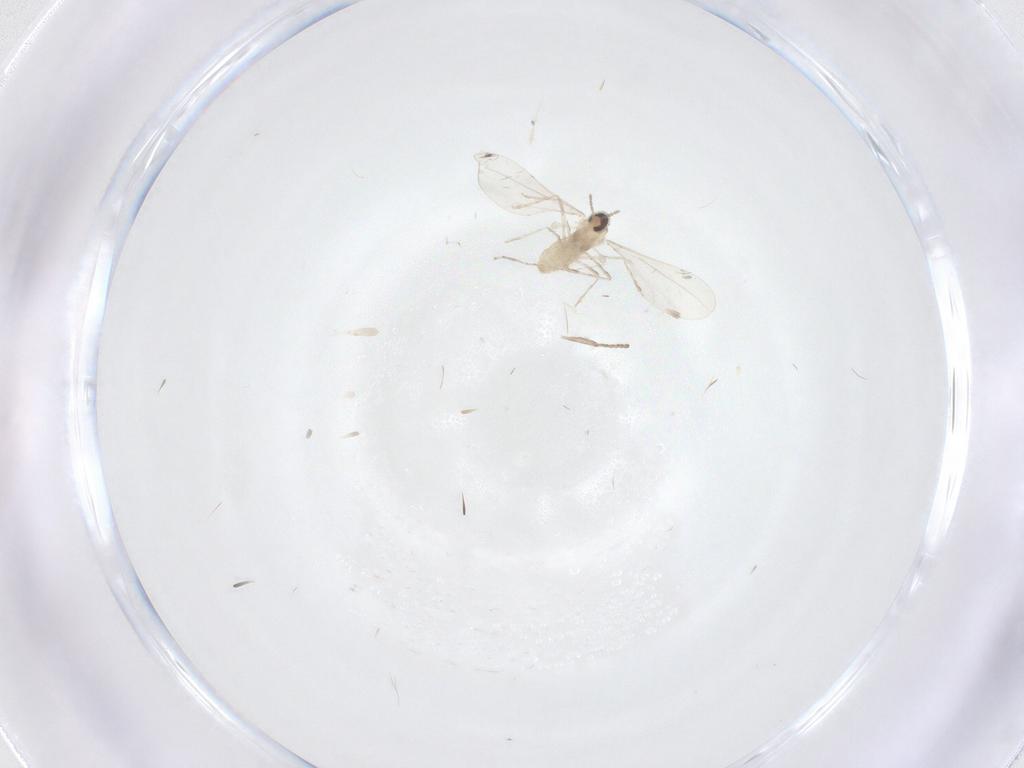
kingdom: Animalia
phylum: Arthropoda
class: Insecta
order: Diptera
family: Cecidomyiidae
